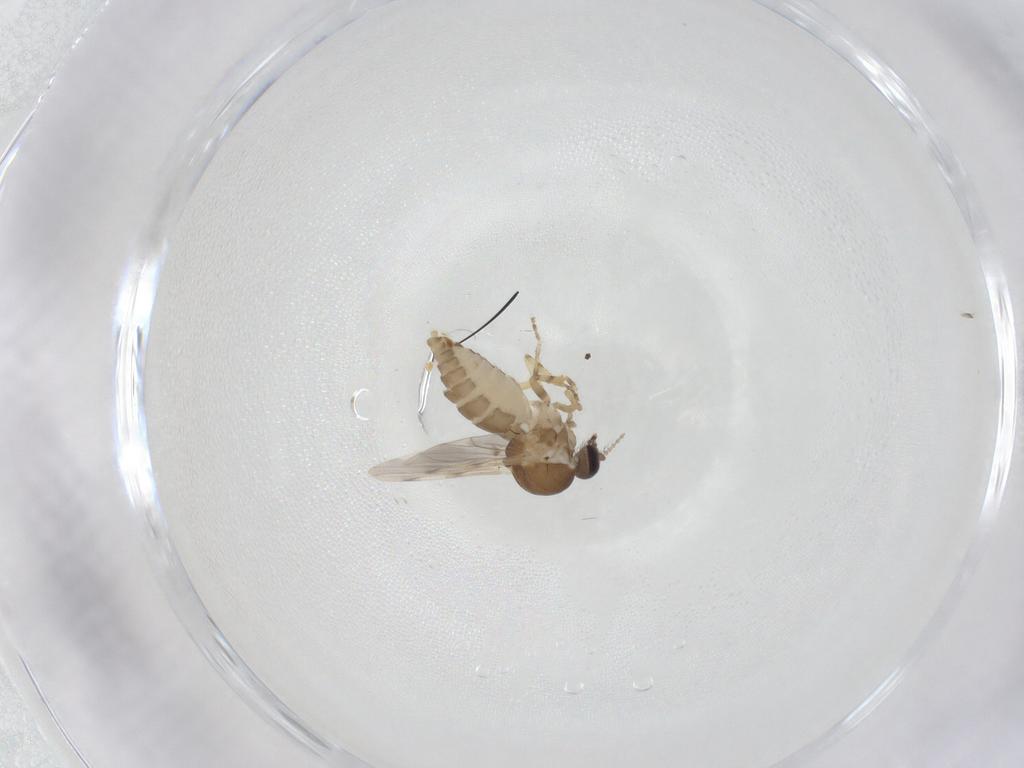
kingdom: Animalia
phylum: Arthropoda
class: Insecta
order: Diptera
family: Ceratopogonidae
